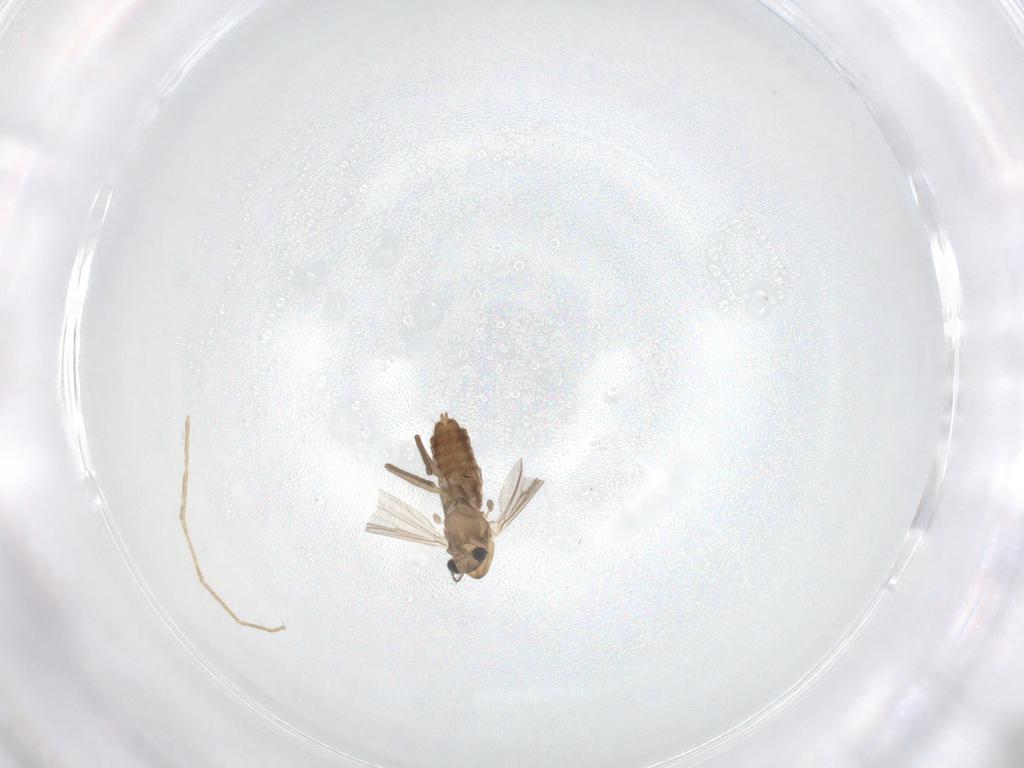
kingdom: Animalia
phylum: Arthropoda
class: Insecta
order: Diptera
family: Chironomidae
